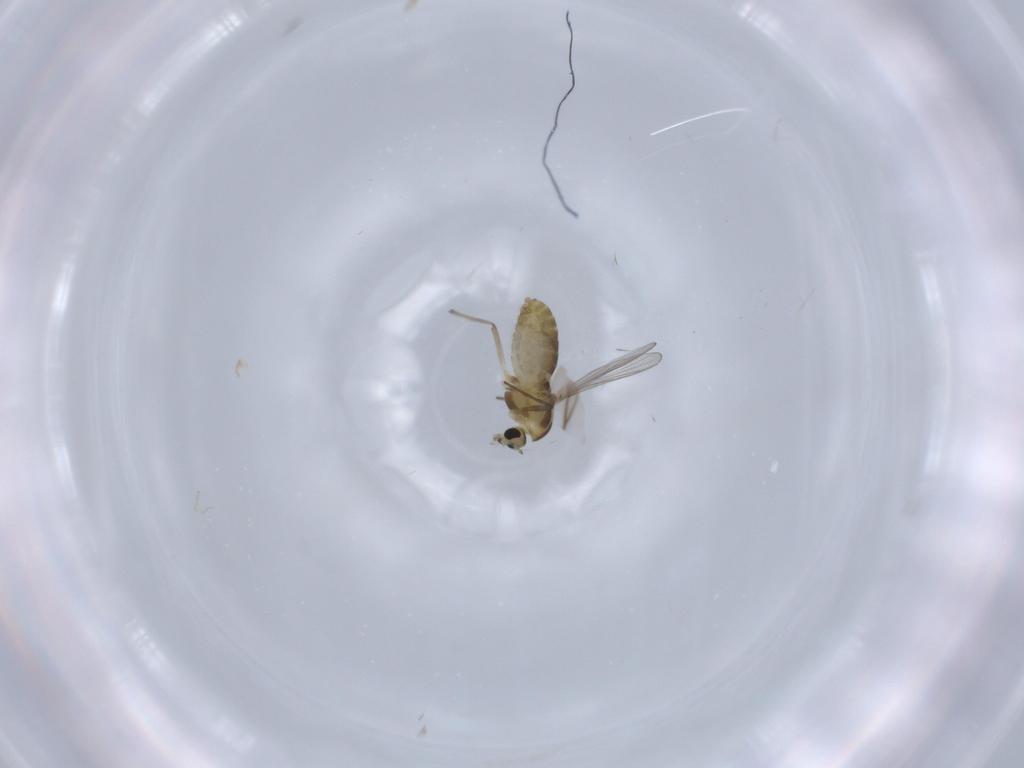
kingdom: Animalia
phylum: Arthropoda
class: Insecta
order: Diptera
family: Chironomidae
